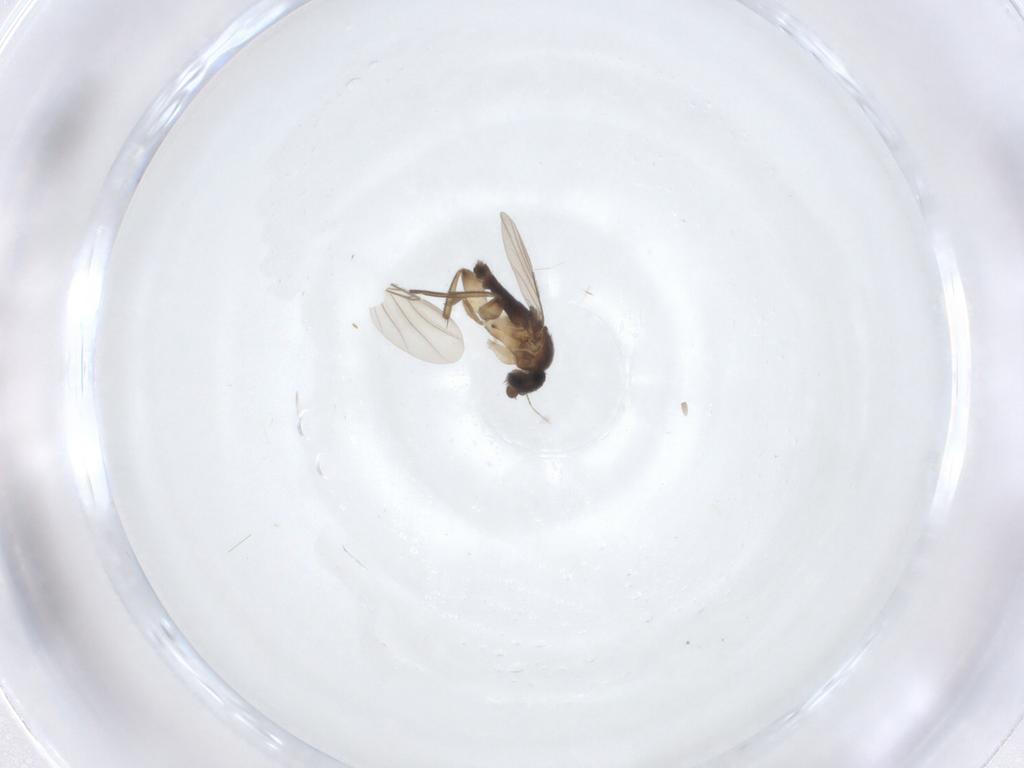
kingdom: Animalia
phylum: Arthropoda
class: Insecta
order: Diptera
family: Phoridae
